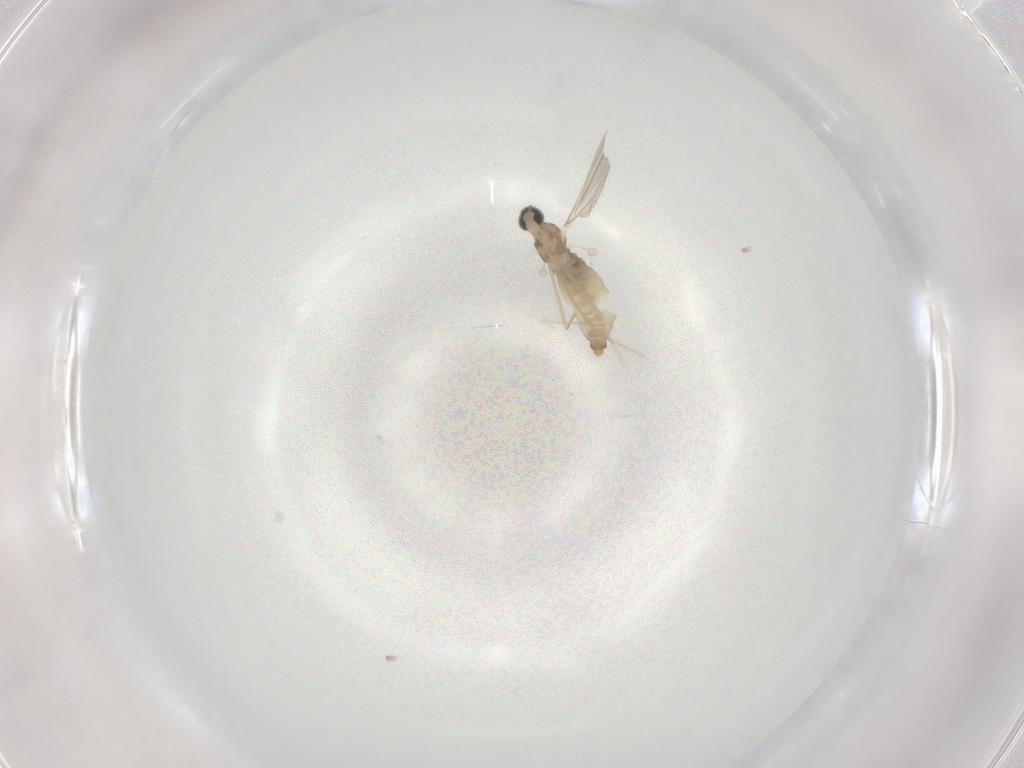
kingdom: Animalia
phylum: Arthropoda
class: Insecta
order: Diptera
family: Cecidomyiidae
